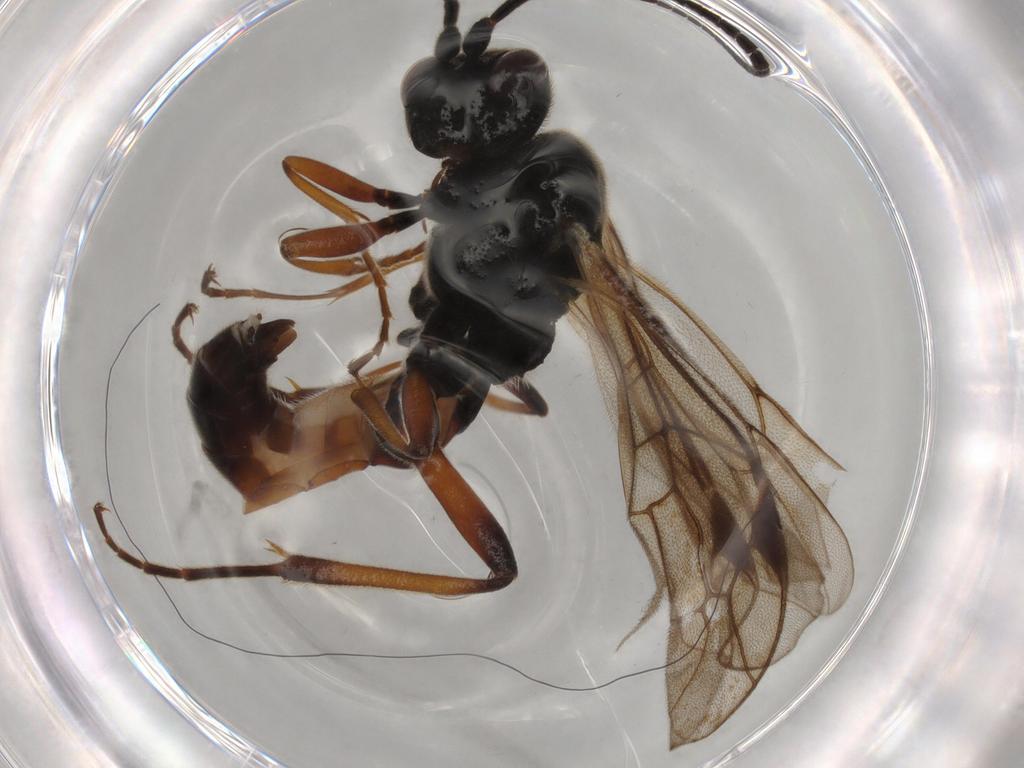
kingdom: Animalia
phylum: Arthropoda
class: Insecta
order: Hymenoptera
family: Ichneumonidae
